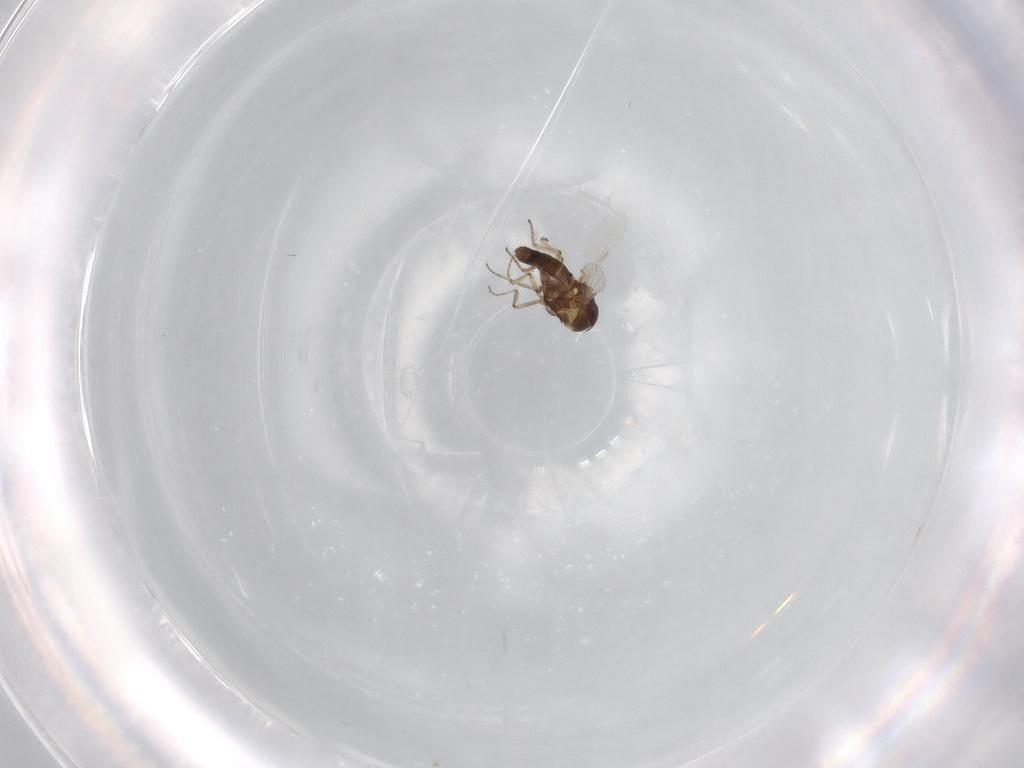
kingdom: Animalia
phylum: Arthropoda
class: Insecta
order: Diptera
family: Ceratopogonidae
